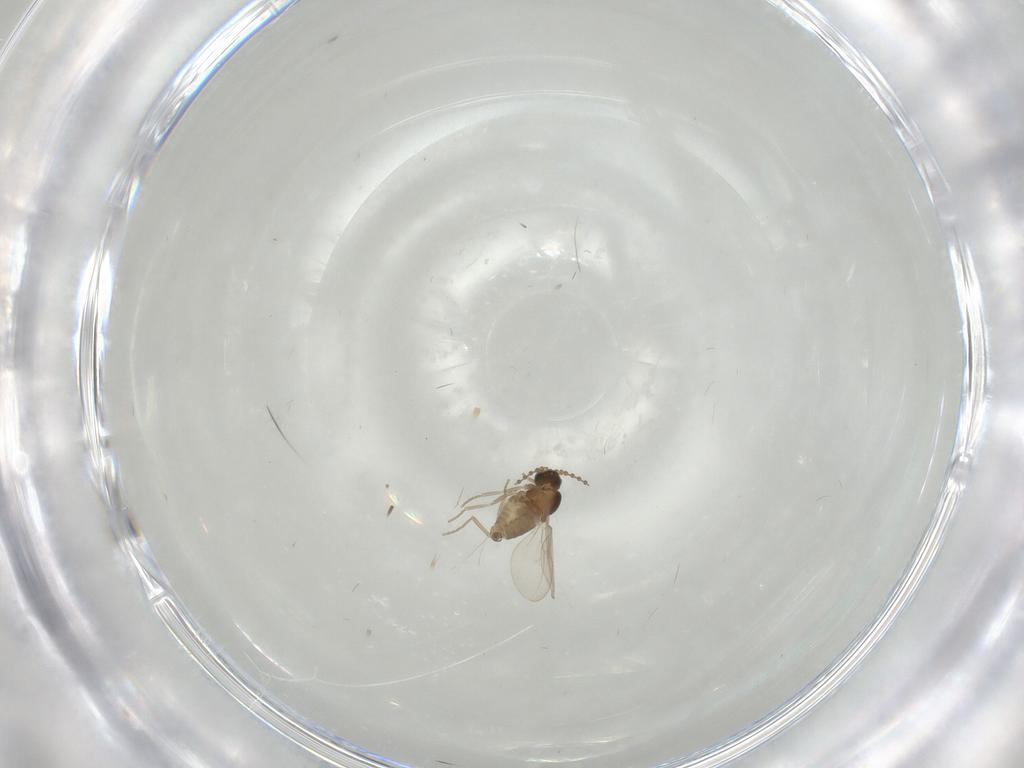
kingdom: Animalia
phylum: Arthropoda
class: Insecta
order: Diptera
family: Cecidomyiidae
